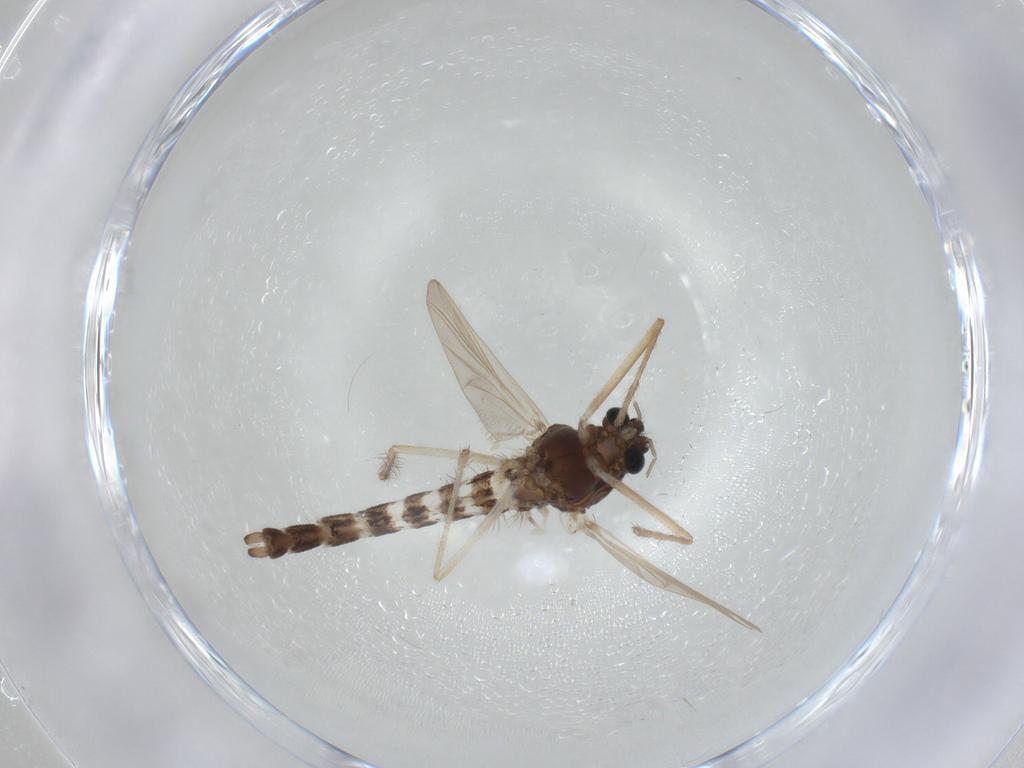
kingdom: Animalia
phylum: Arthropoda
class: Insecta
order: Diptera
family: Chironomidae
